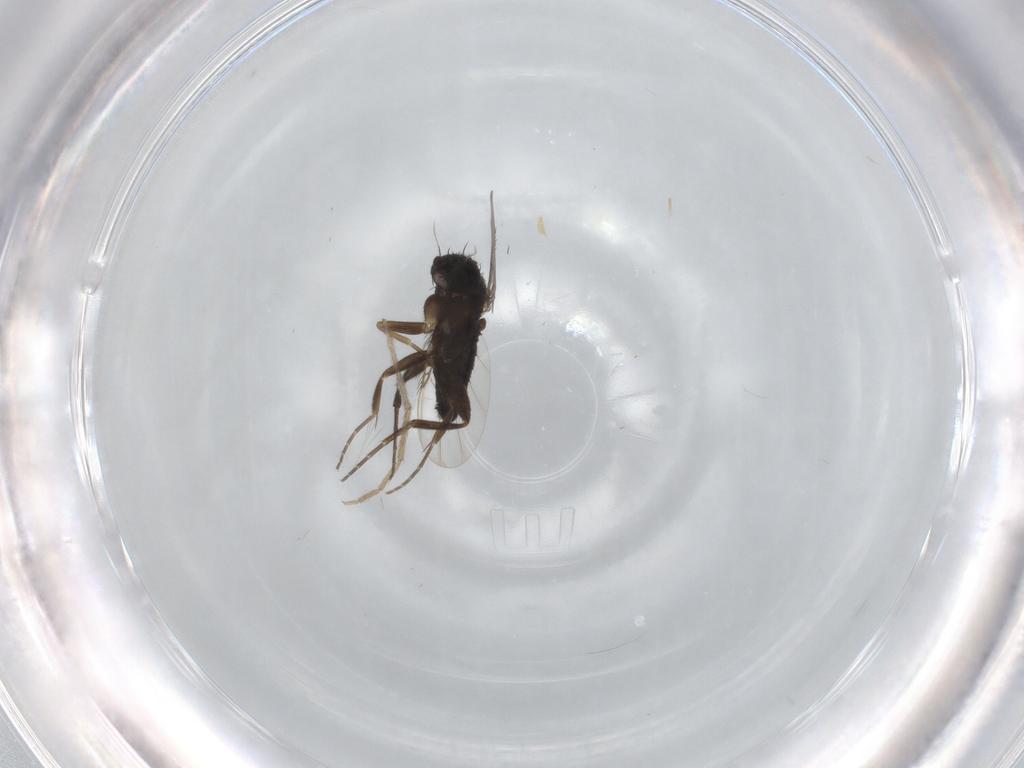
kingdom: Animalia
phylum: Arthropoda
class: Insecta
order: Diptera
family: Phoridae
